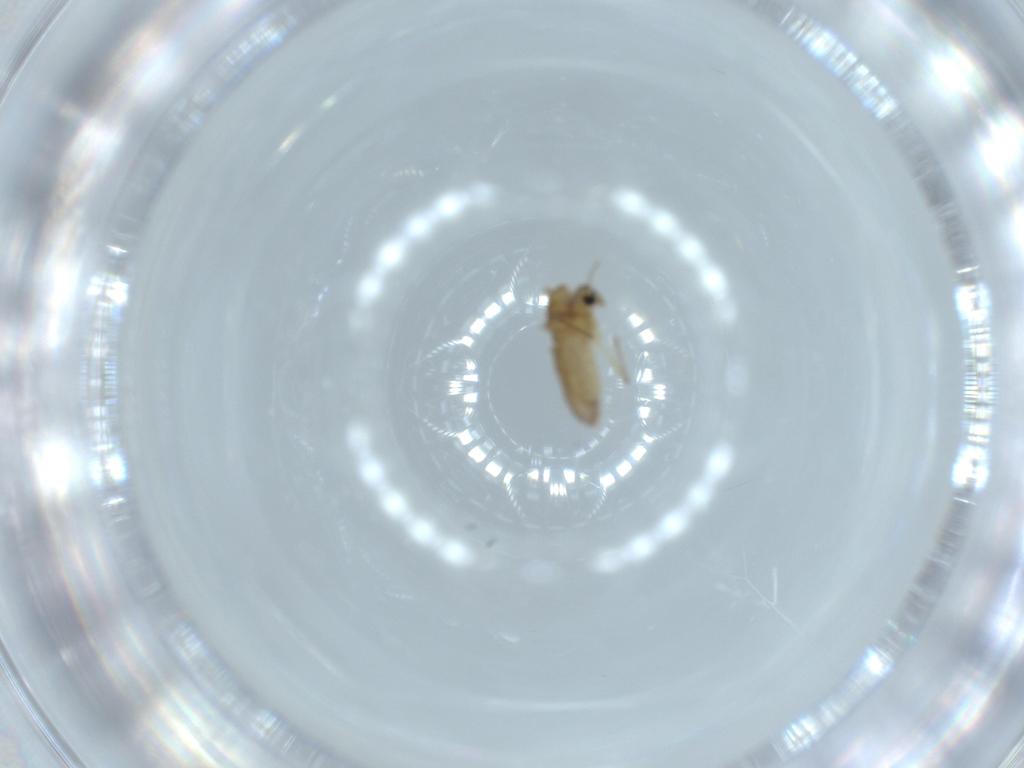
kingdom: Animalia
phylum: Arthropoda
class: Insecta
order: Diptera
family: Chironomidae
